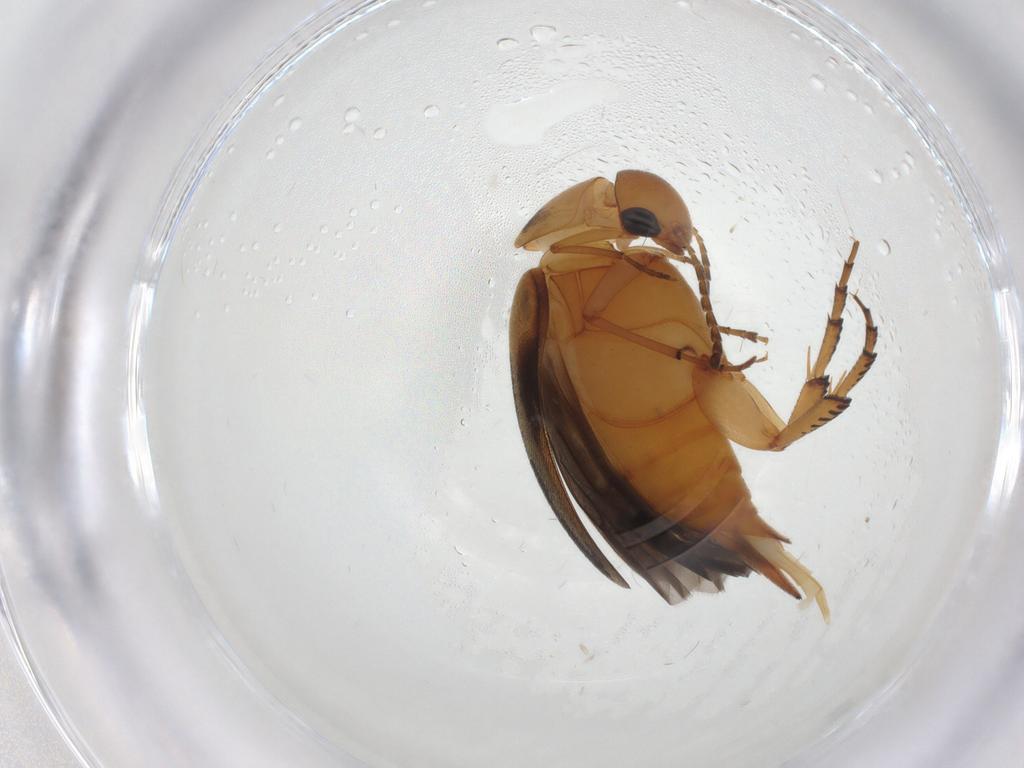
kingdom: Animalia
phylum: Arthropoda
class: Insecta
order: Coleoptera
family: Mordellidae
